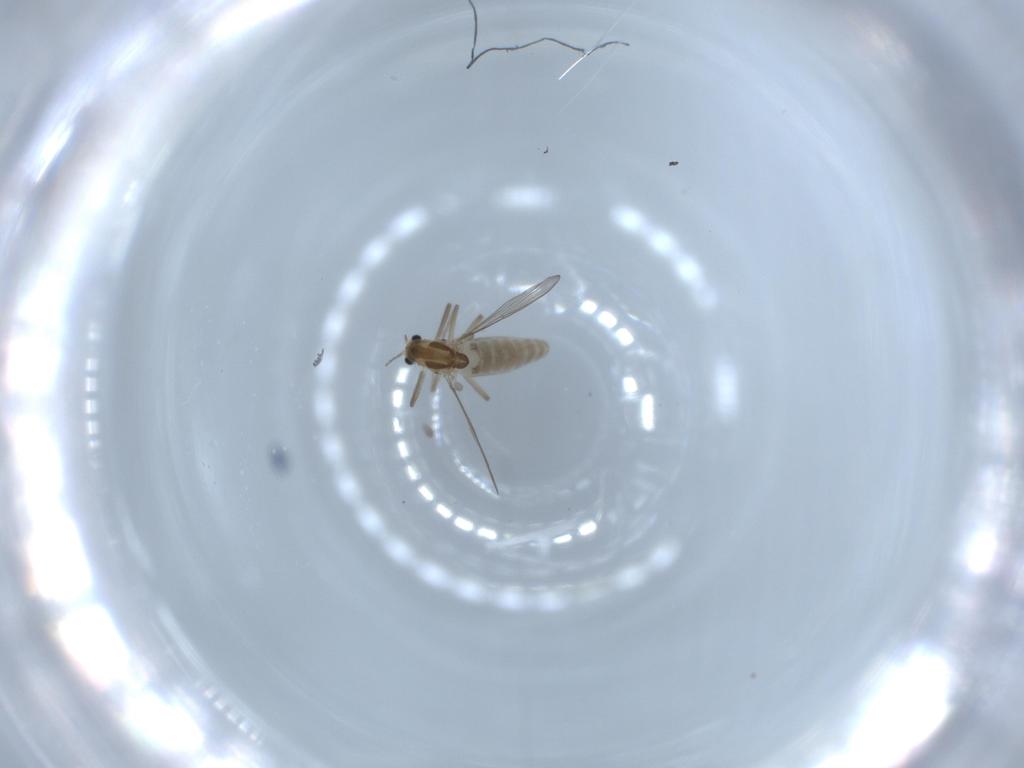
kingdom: Animalia
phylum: Arthropoda
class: Insecta
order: Diptera
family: Chironomidae
